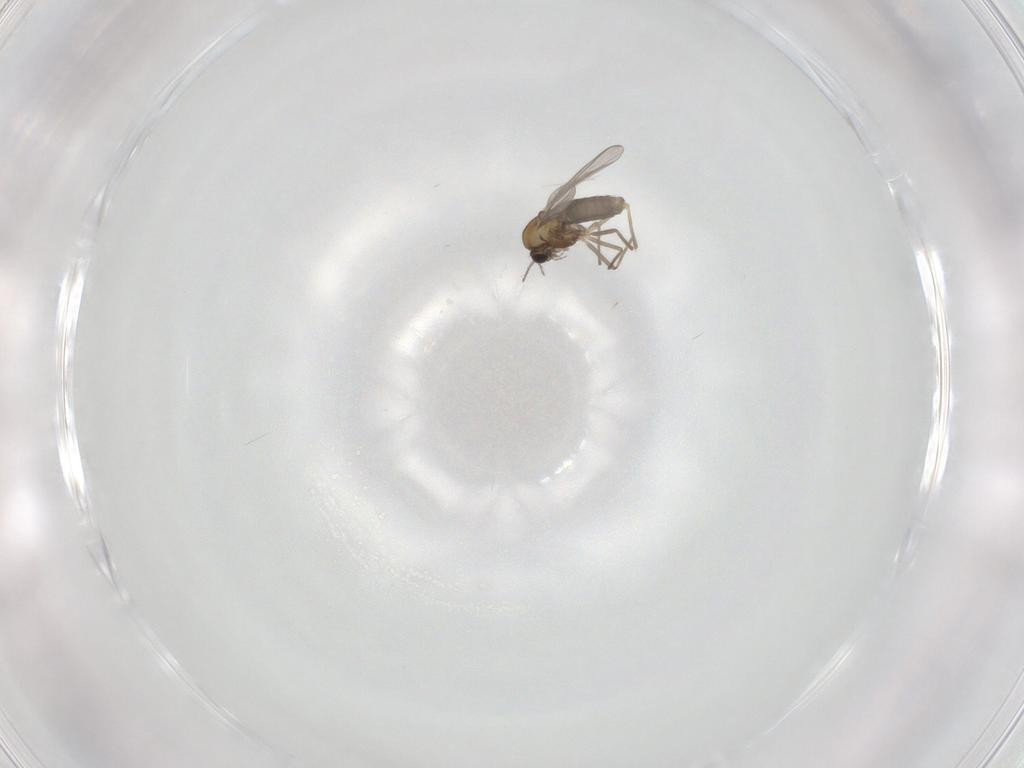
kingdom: Animalia
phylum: Arthropoda
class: Insecta
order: Diptera
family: Chironomidae
